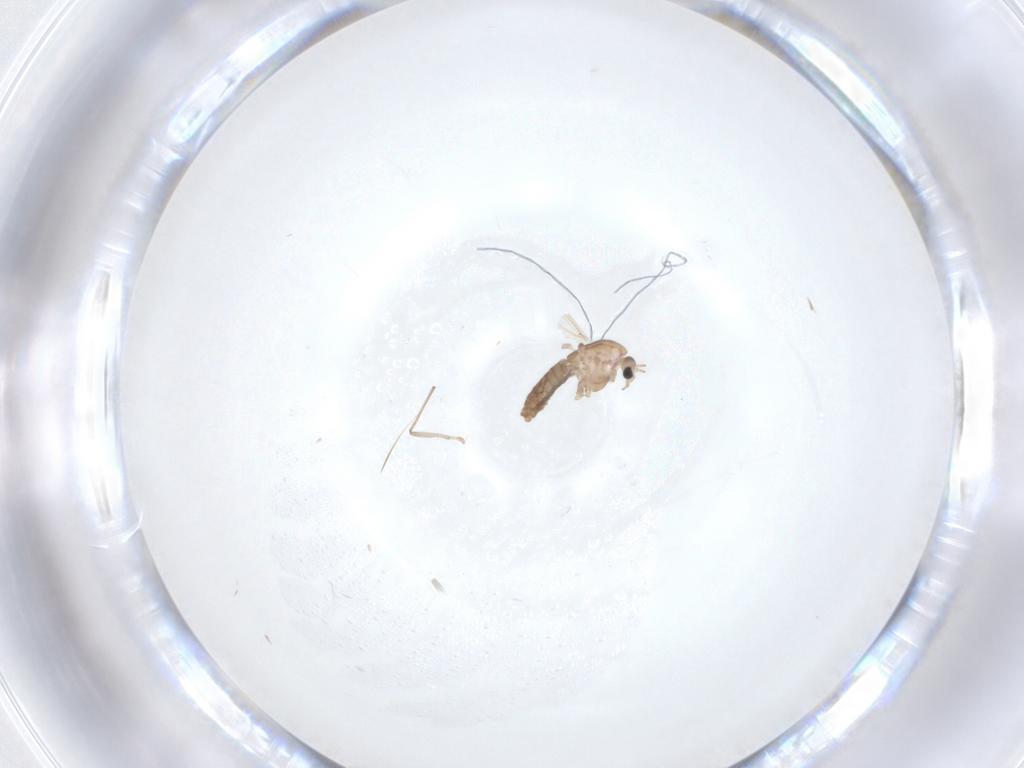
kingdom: Animalia
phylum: Arthropoda
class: Insecta
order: Diptera
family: Chironomidae
